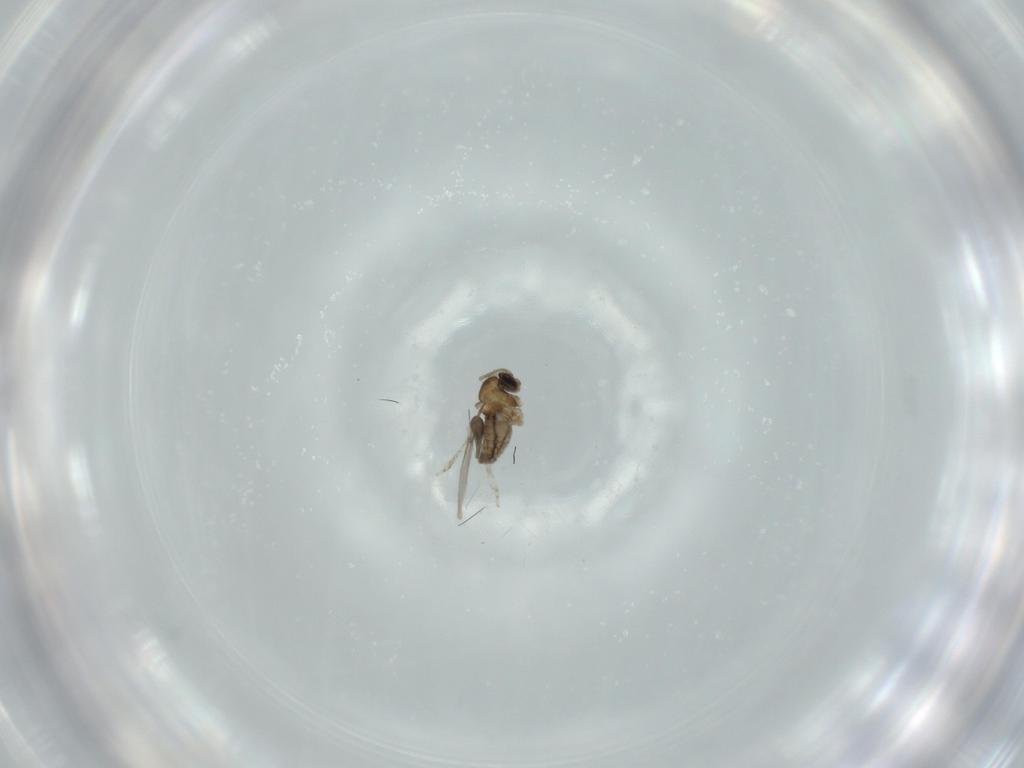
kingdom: Animalia
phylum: Arthropoda
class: Insecta
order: Diptera
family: Cecidomyiidae
